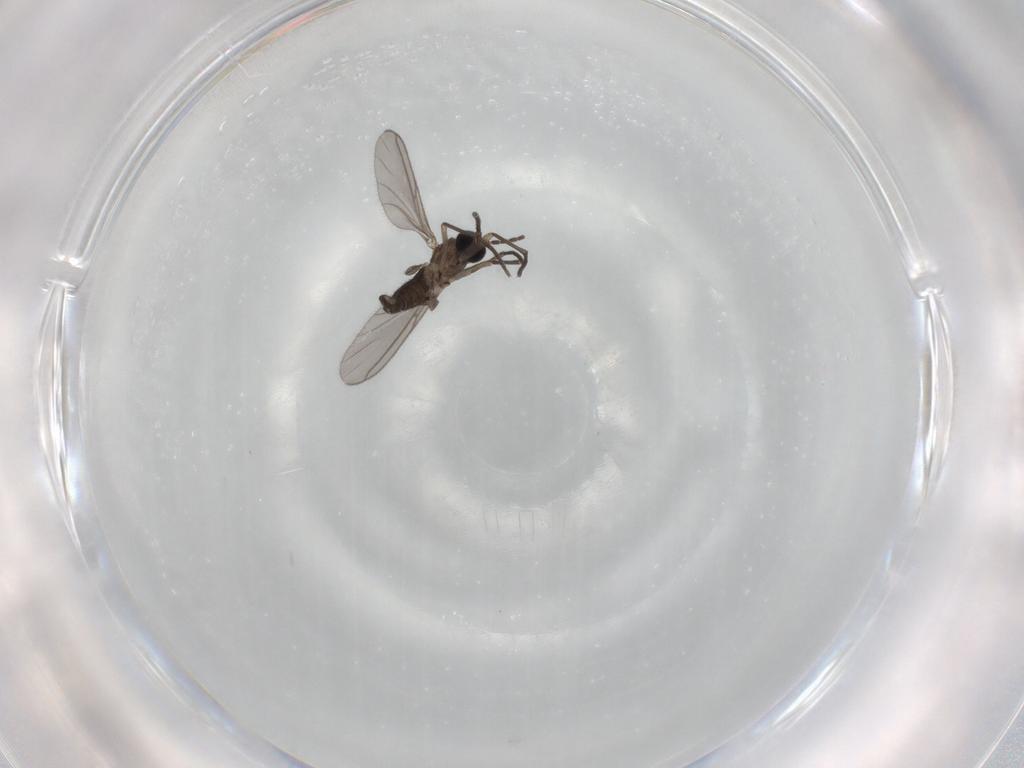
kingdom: Animalia
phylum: Arthropoda
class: Insecta
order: Diptera
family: Sciaridae
